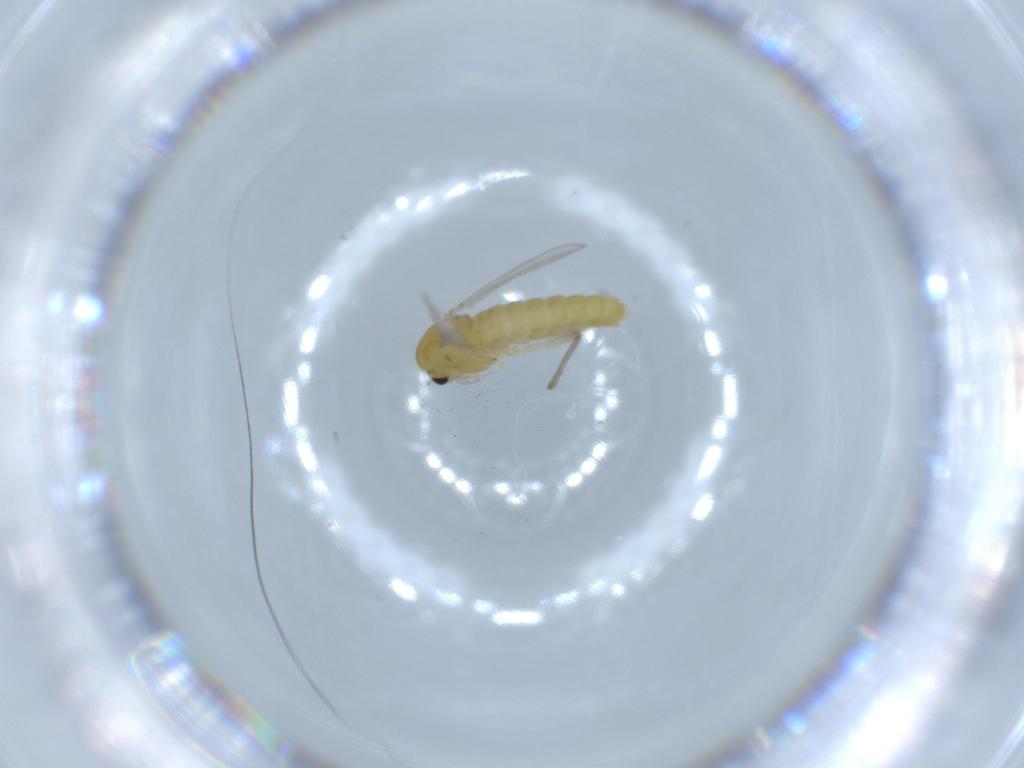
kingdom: Animalia
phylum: Arthropoda
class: Insecta
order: Diptera
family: Chironomidae
